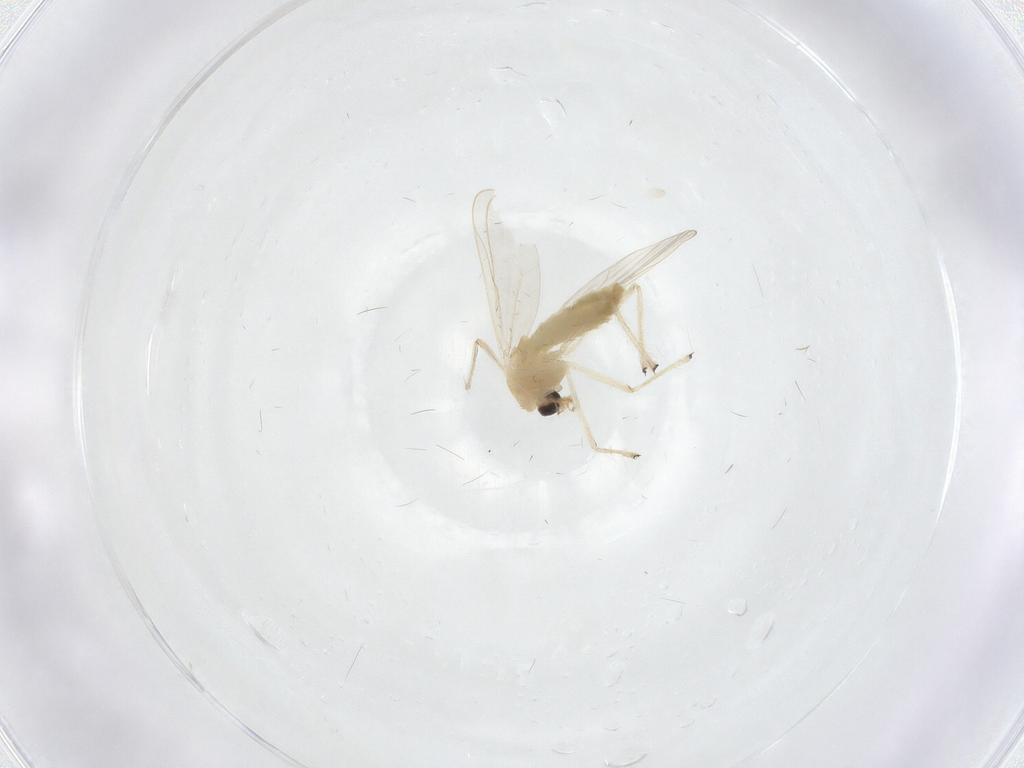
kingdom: Animalia
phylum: Arthropoda
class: Insecta
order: Diptera
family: Chironomidae
